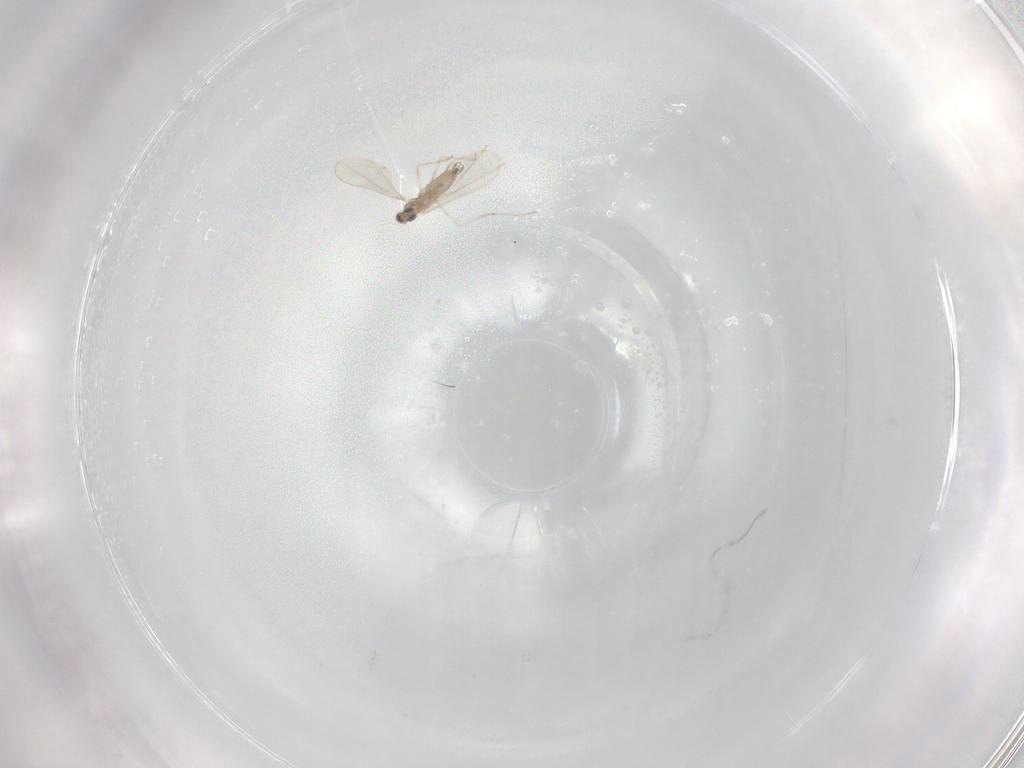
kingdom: Animalia
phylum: Arthropoda
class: Insecta
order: Diptera
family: Cecidomyiidae
